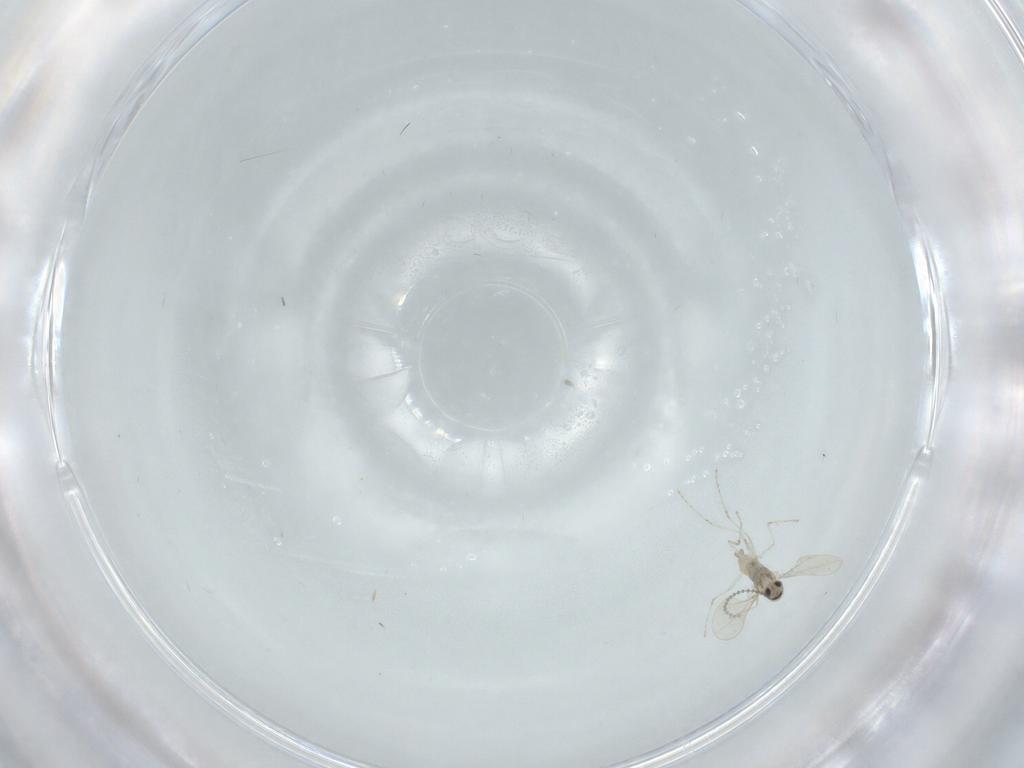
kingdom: Animalia
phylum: Arthropoda
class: Insecta
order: Diptera
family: Cecidomyiidae
